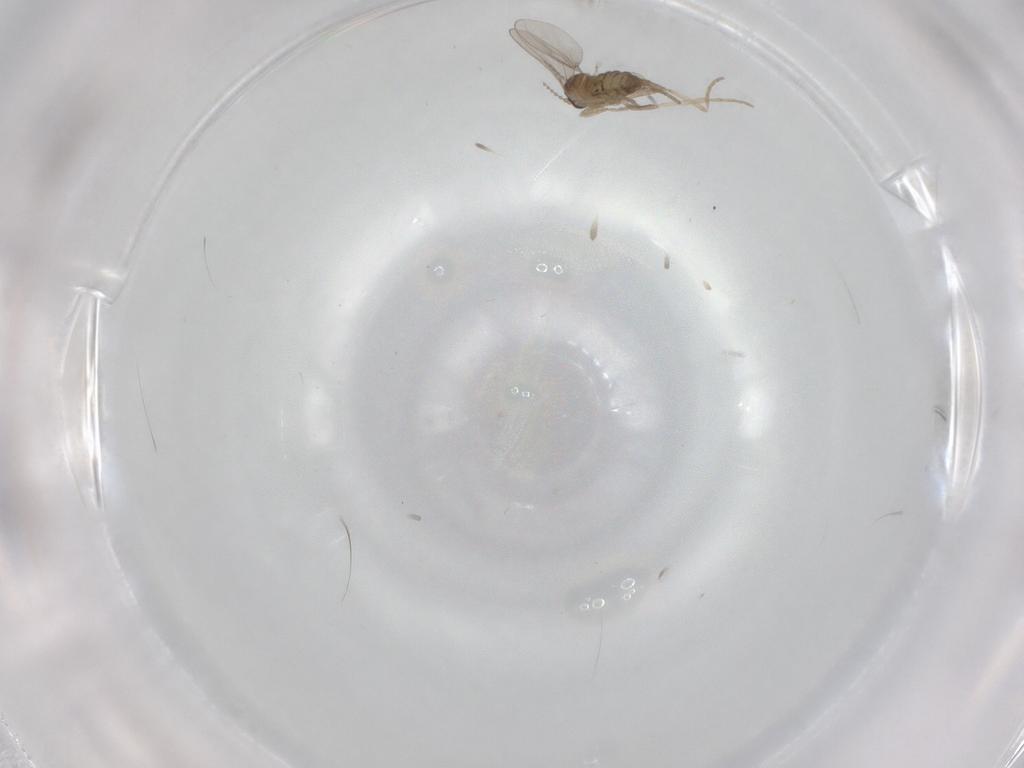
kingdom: Animalia
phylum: Arthropoda
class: Insecta
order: Diptera
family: Cecidomyiidae
